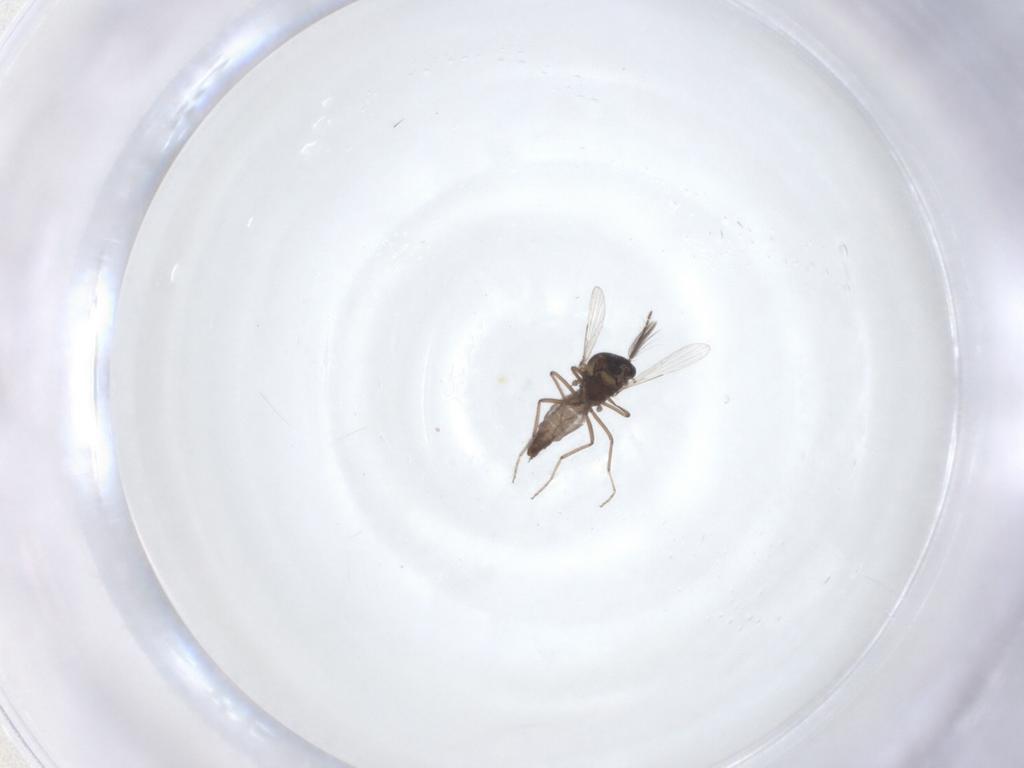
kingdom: Animalia
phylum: Arthropoda
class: Insecta
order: Diptera
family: Ceratopogonidae
